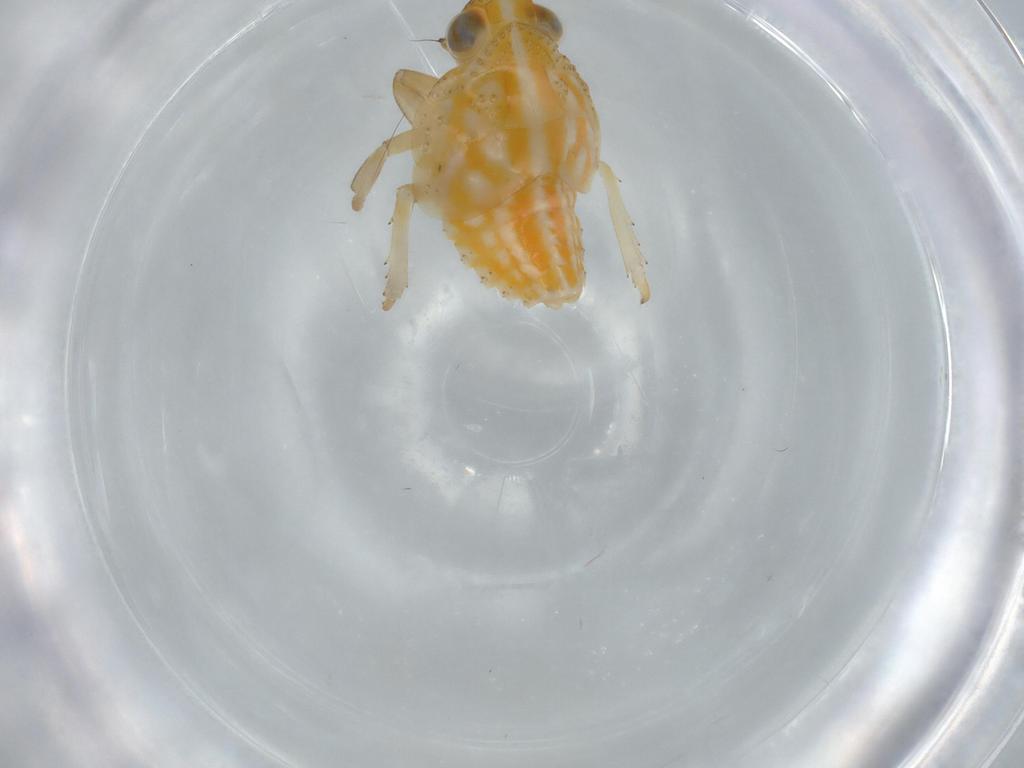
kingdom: Animalia
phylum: Arthropoda
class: Insecta
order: Hemiptera
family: Issidae
